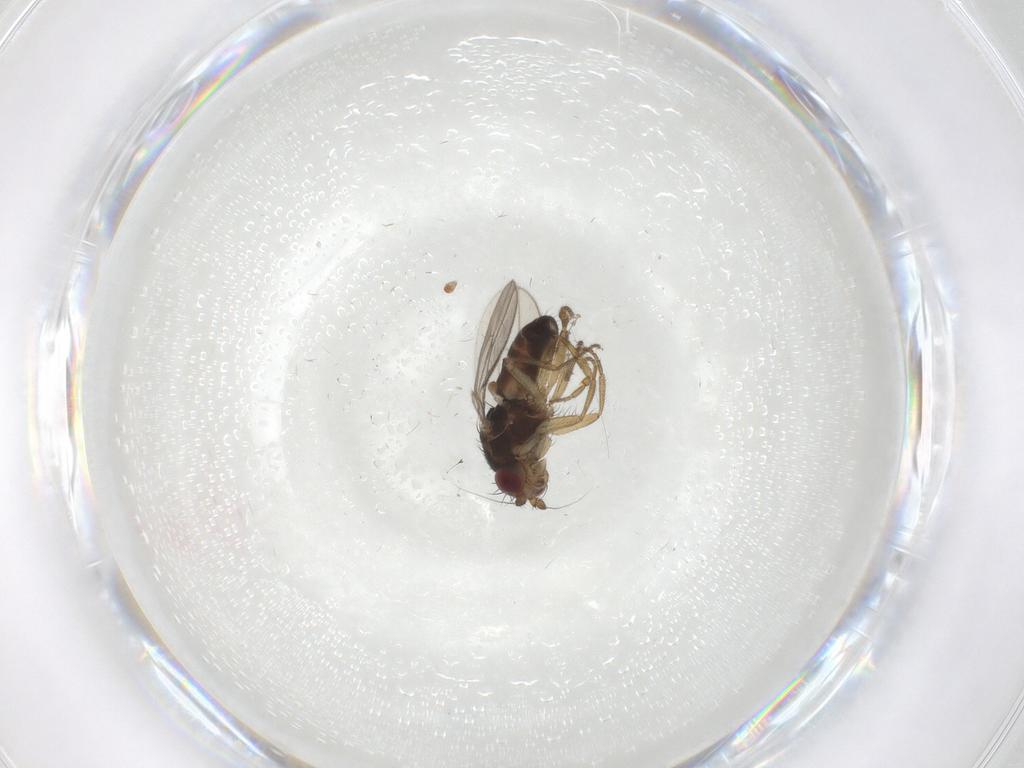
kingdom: Animalia
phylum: Arthropoda
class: Insecta
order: Diptera
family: Sphaeroceridae
